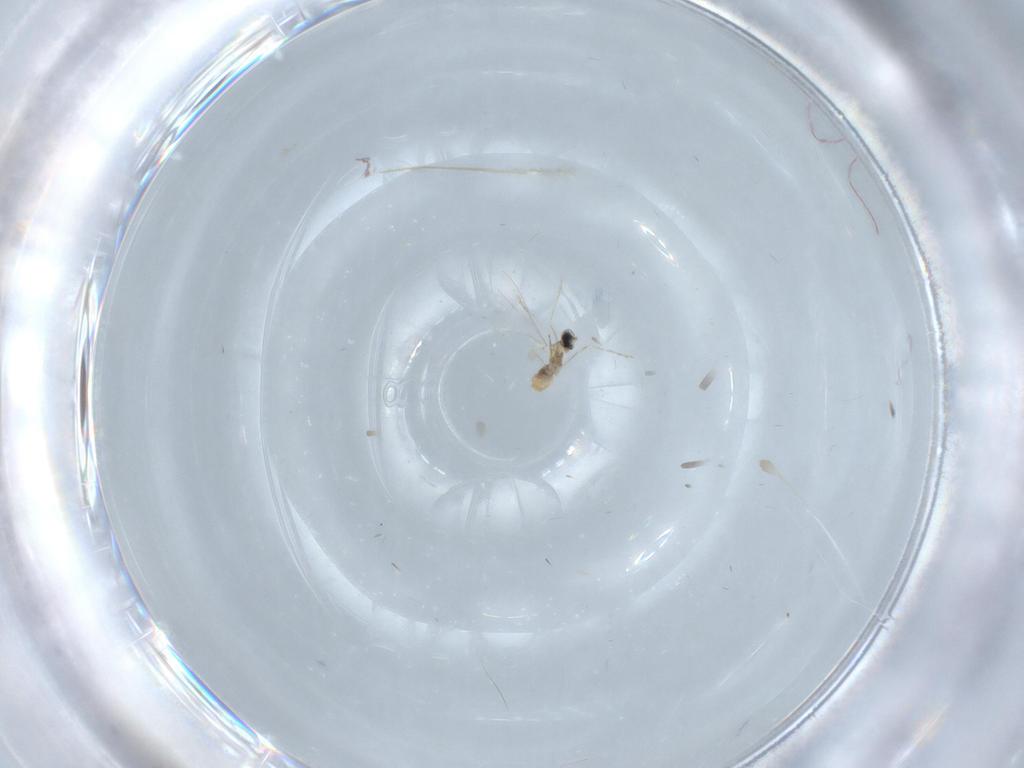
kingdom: Animalia
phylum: Arthropoda
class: Insecta
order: Diptera
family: Cecidomyiidae
